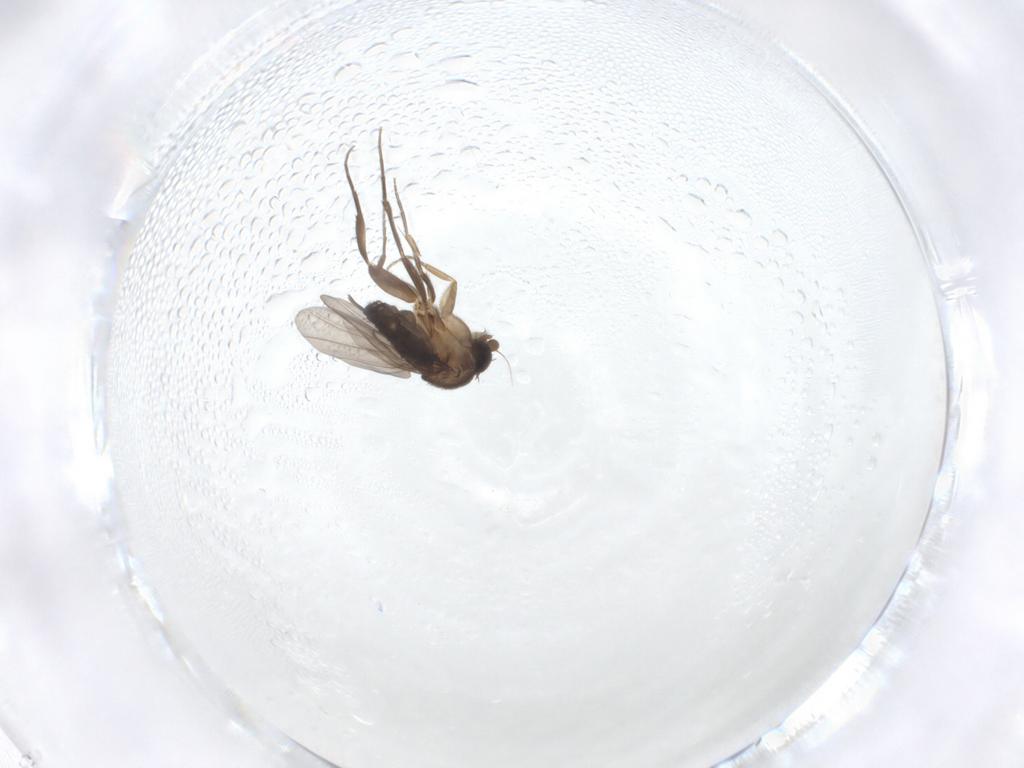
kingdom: Animalia
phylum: Arthropoda
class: Insecta
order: Diptera
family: Phoridae
